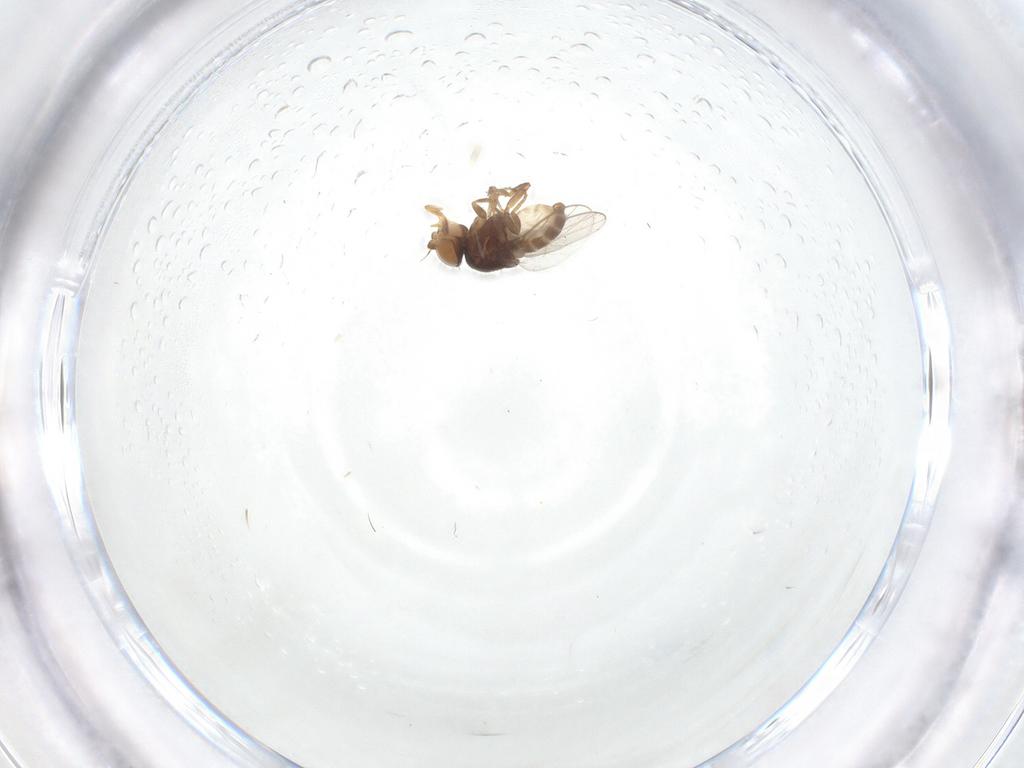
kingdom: Animalia
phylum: Arthropoda
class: Insecta
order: Diptera
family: Chloropidae
